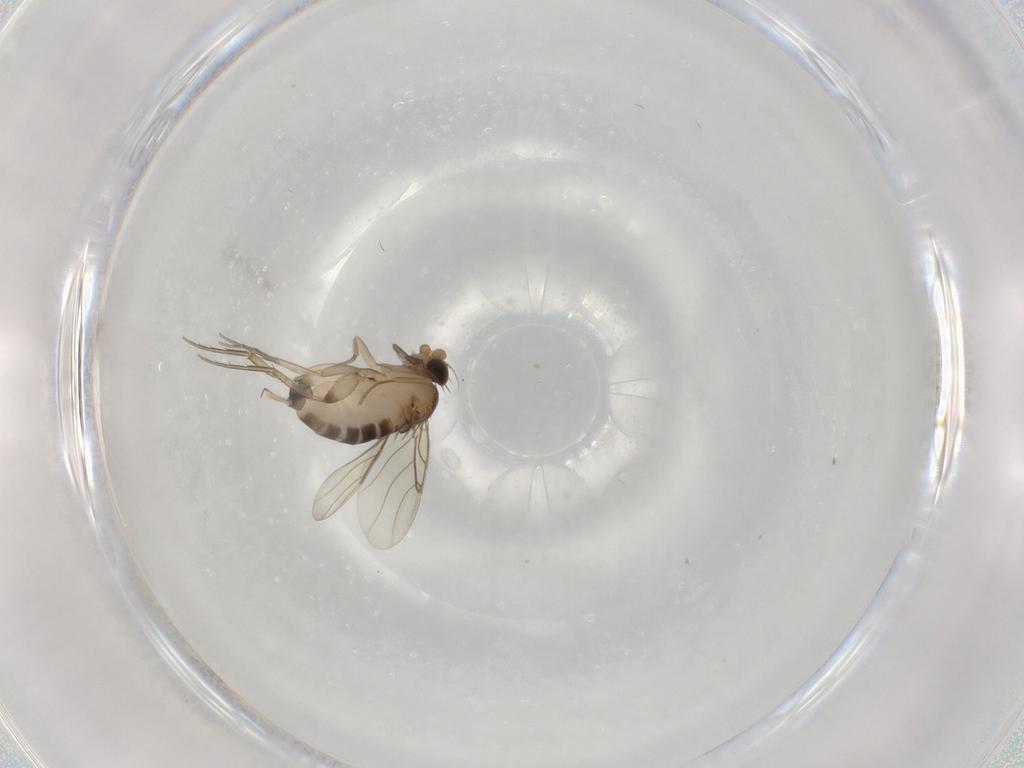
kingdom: Animalia
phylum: Arthropoda
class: Insecta
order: Diptera
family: Phoridae
